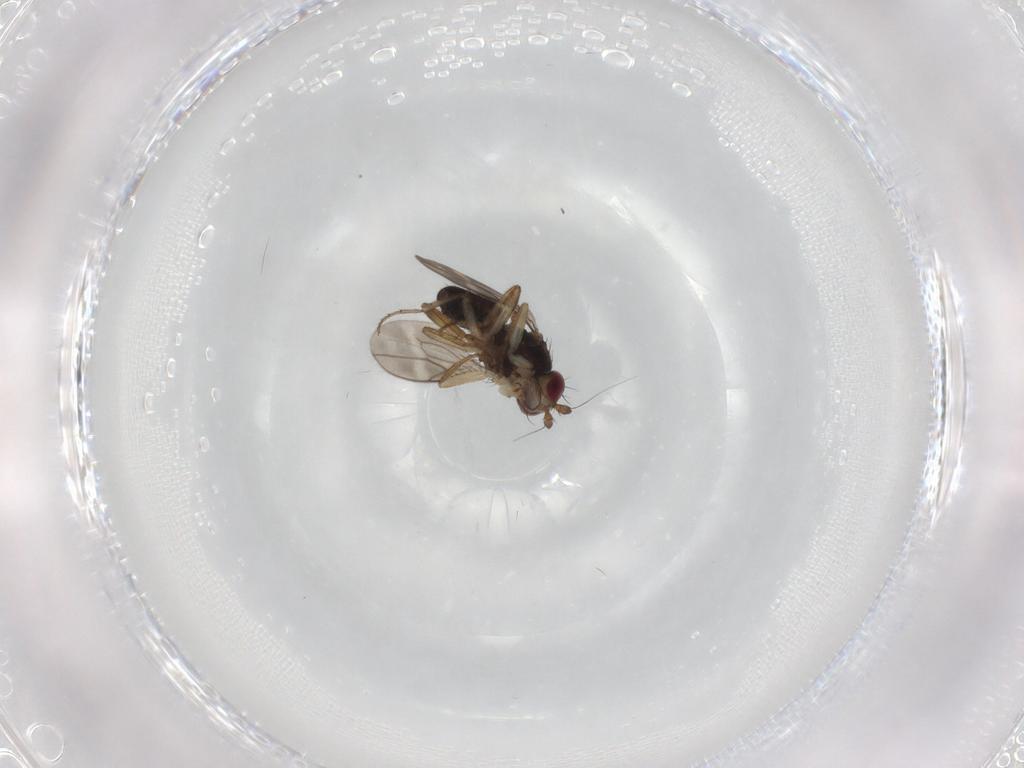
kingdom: Animalia
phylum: Arthropoda
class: Insecta
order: Diptera
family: Sphaeroceridae
